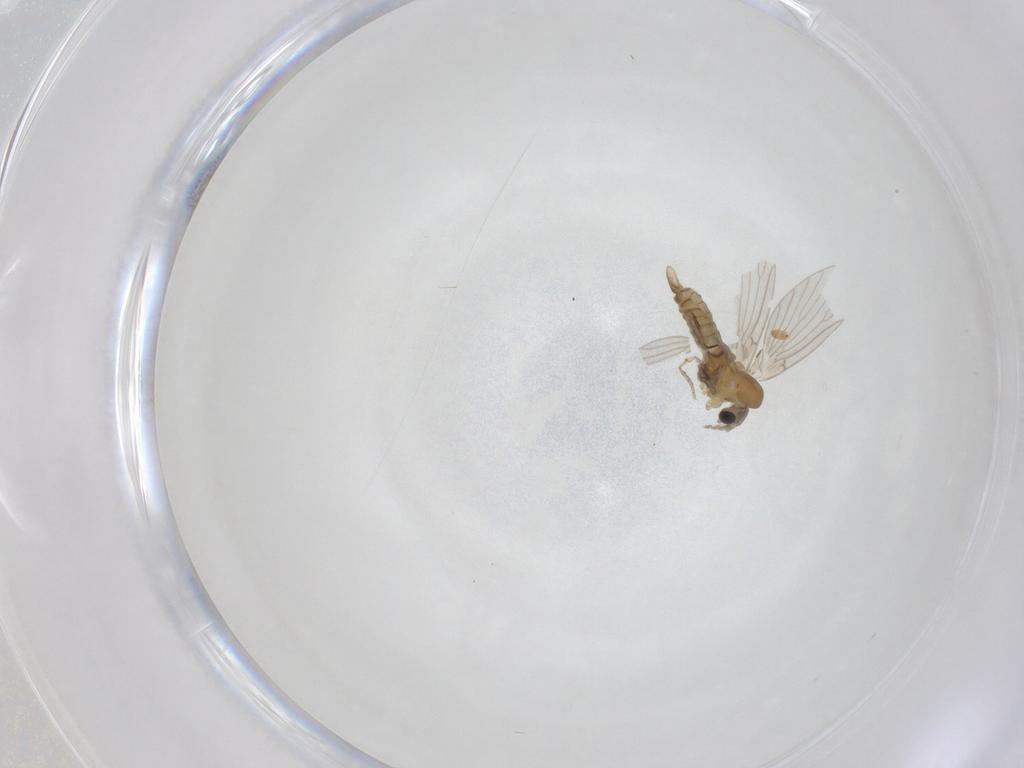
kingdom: Animalia
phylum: Arthropoda
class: Insecta
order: Diptera
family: Psychodidae
